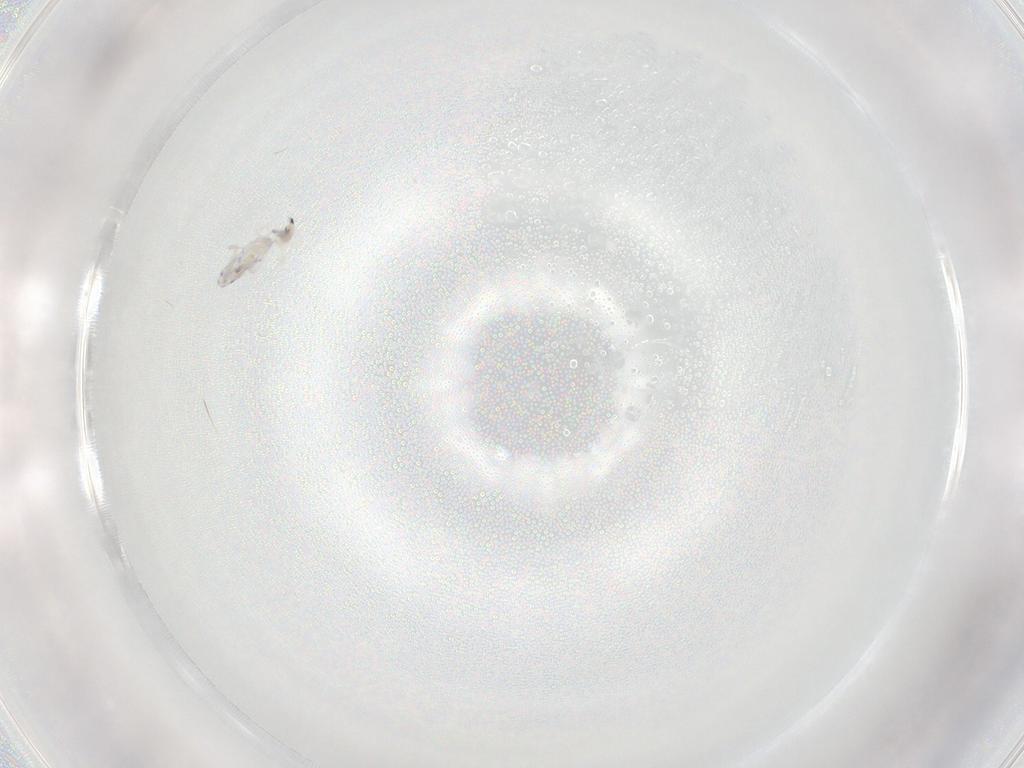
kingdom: Animalia
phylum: Arthropoda
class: Collembola
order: Entomobryomorpha
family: Entomobryidae
